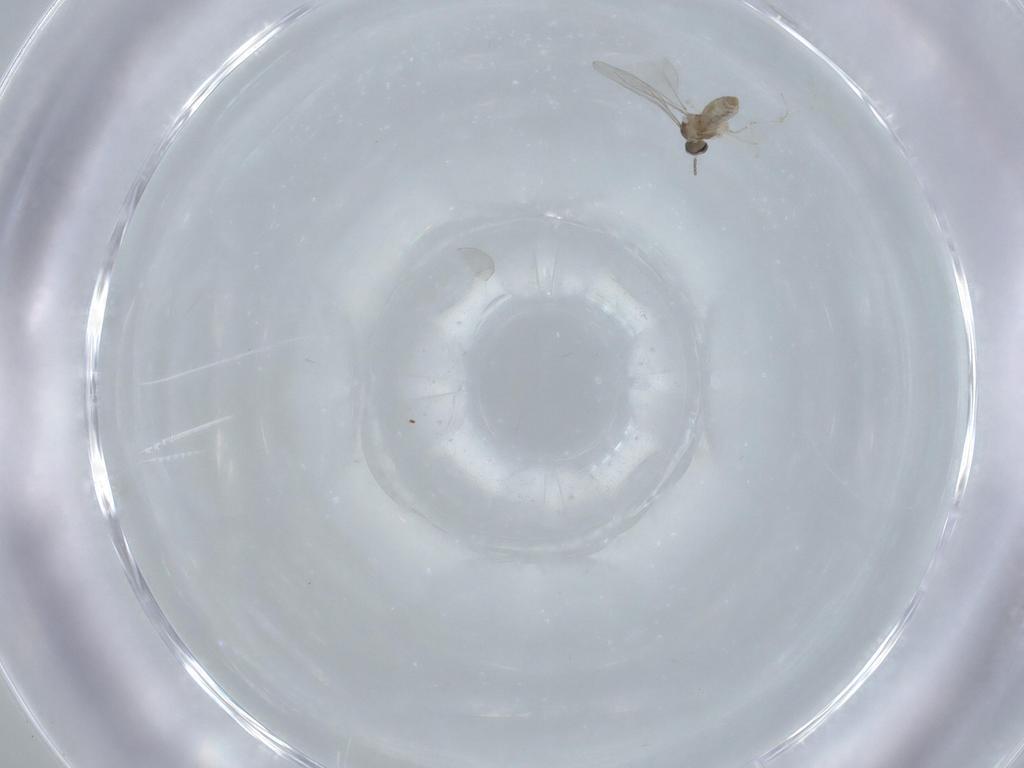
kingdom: Animalia
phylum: Arthropoda
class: Insecta
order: Diptera
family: Cecidomyiidae
